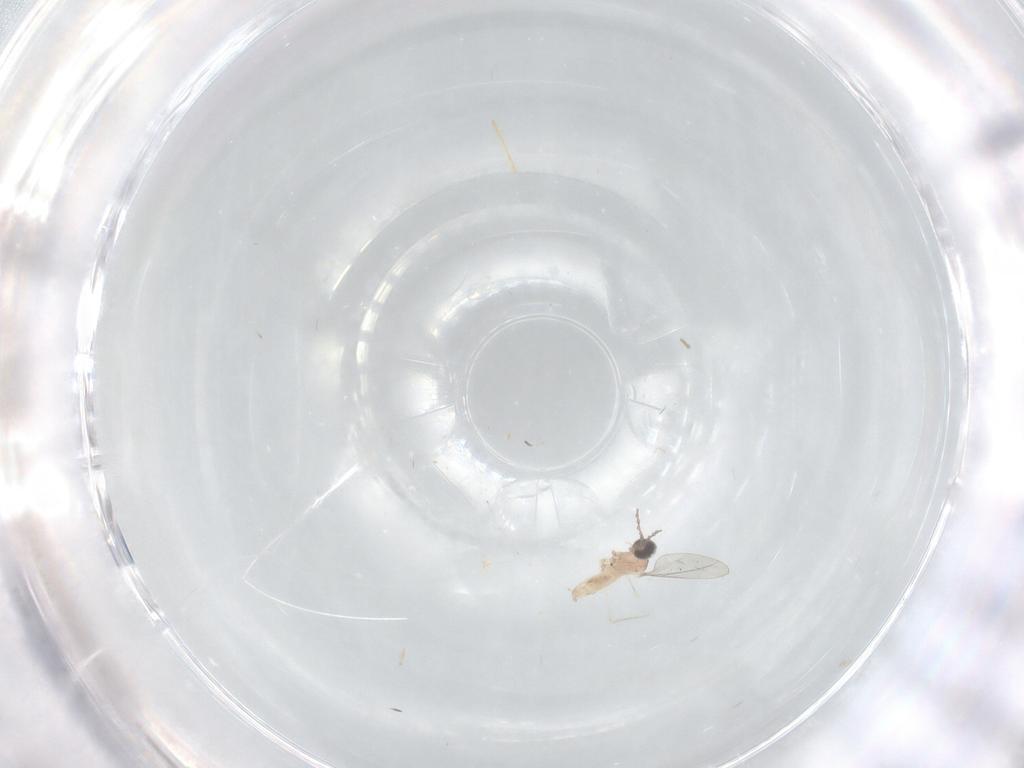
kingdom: Animalia
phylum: Arthropoda
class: Insecta
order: Diptera
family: Cecidomyiidae
